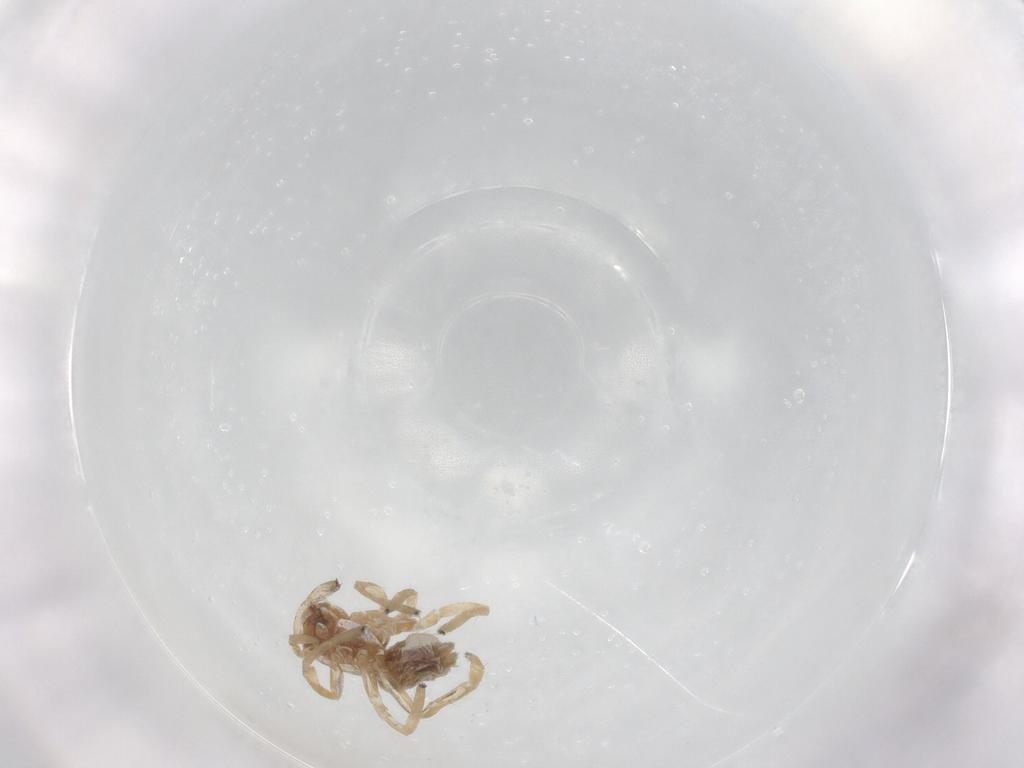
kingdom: Animalia
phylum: Arthropoda
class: Arachnida
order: Araneae
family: Cheiracanthiidae
